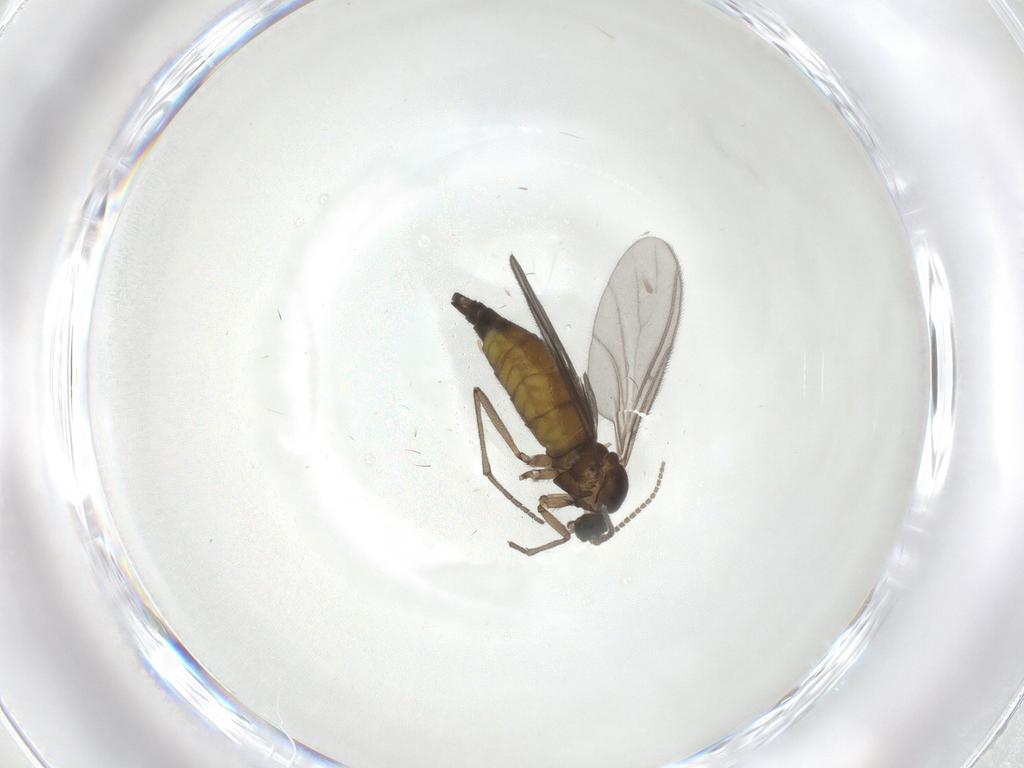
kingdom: Animalia
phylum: Arthropoda
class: Insecta
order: Diptera
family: Sciaridae
